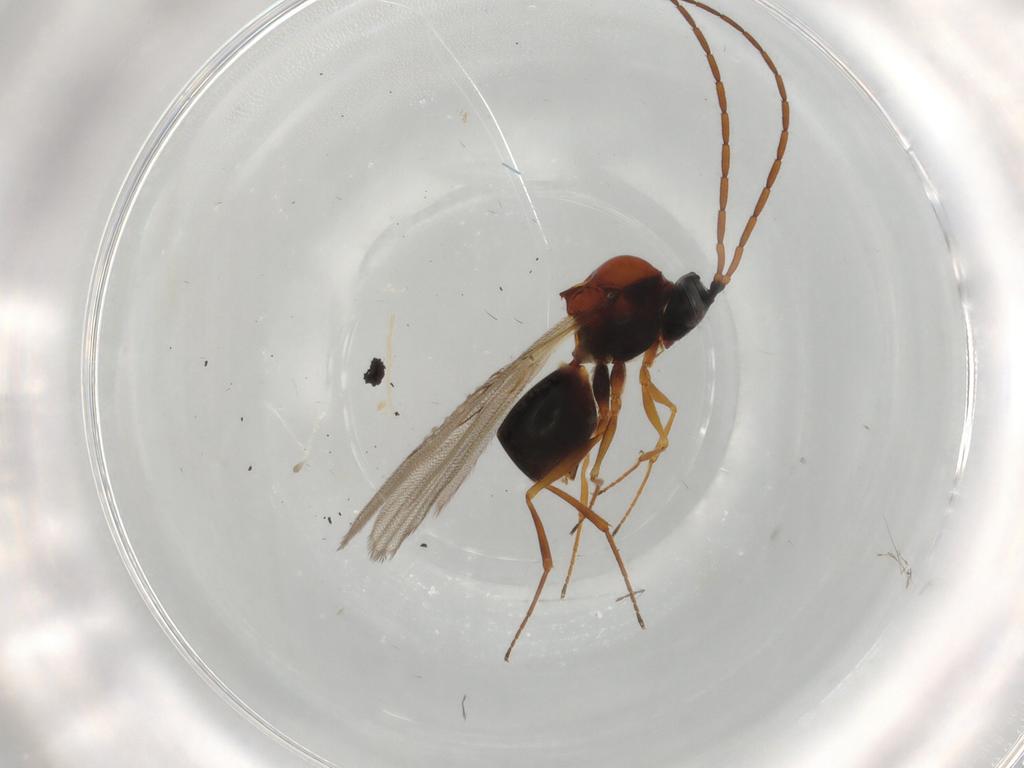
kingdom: Animalia
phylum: Arthropoda
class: Insecta
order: Hymenoptera
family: Figitidae
